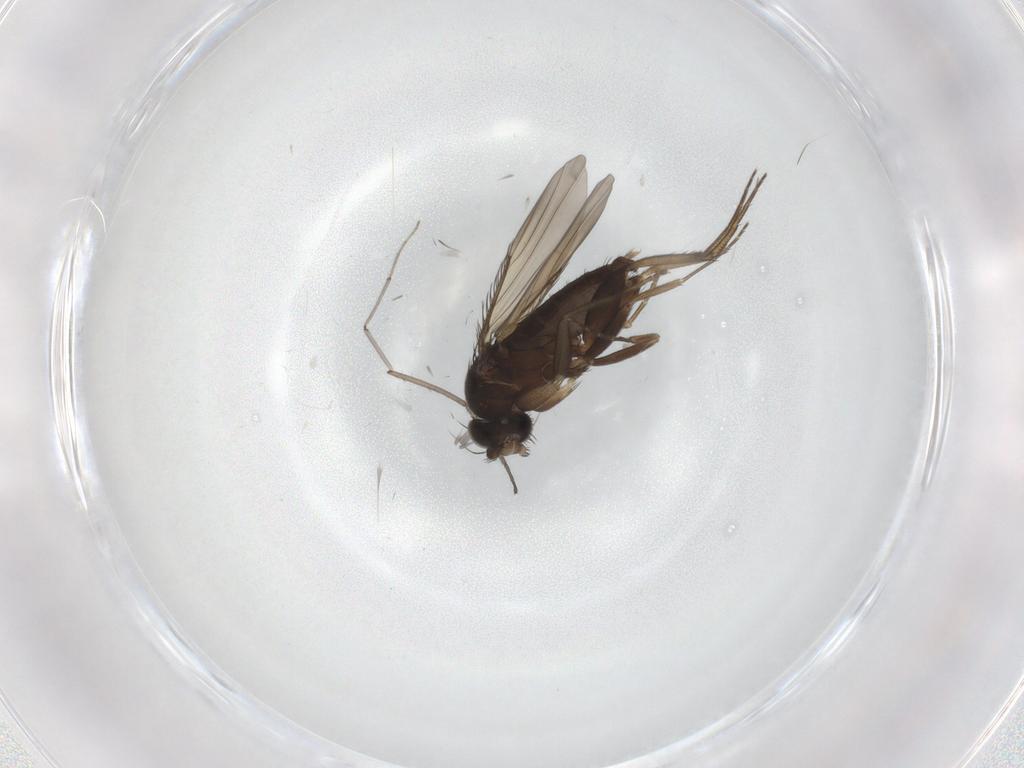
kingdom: Animalia
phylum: Arthropoda
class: Insecta
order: Diptera
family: Phoridae
